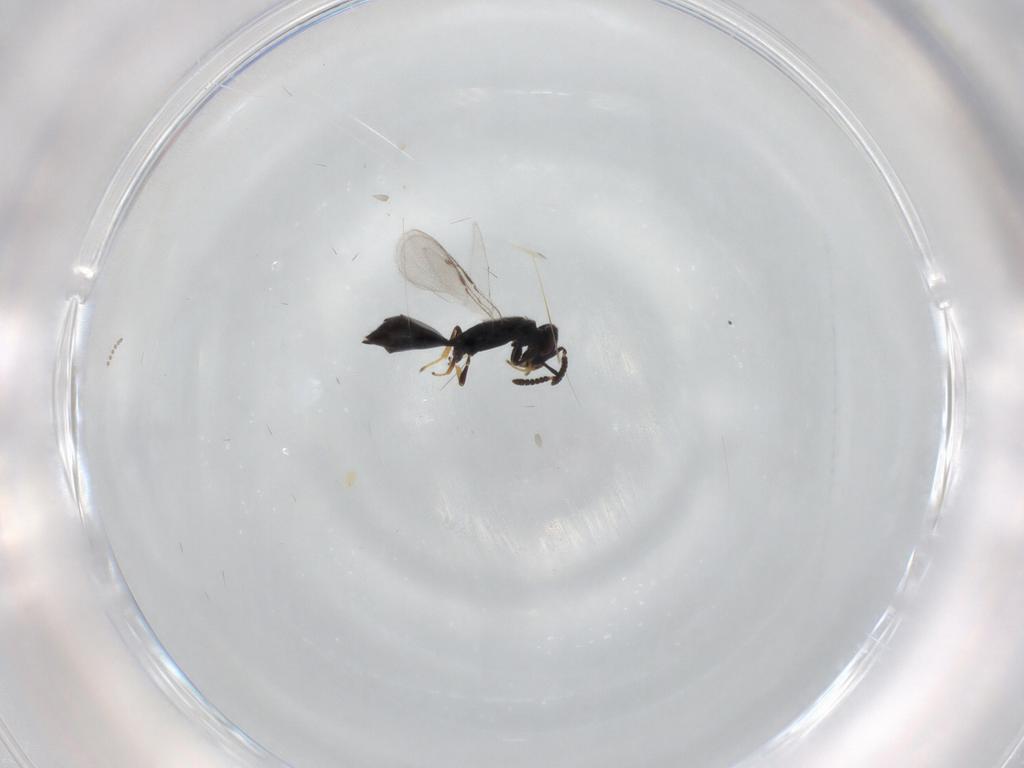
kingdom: Animalia
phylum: Arthropoda
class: Insecta
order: Hymenoptera
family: Pteromalidae
